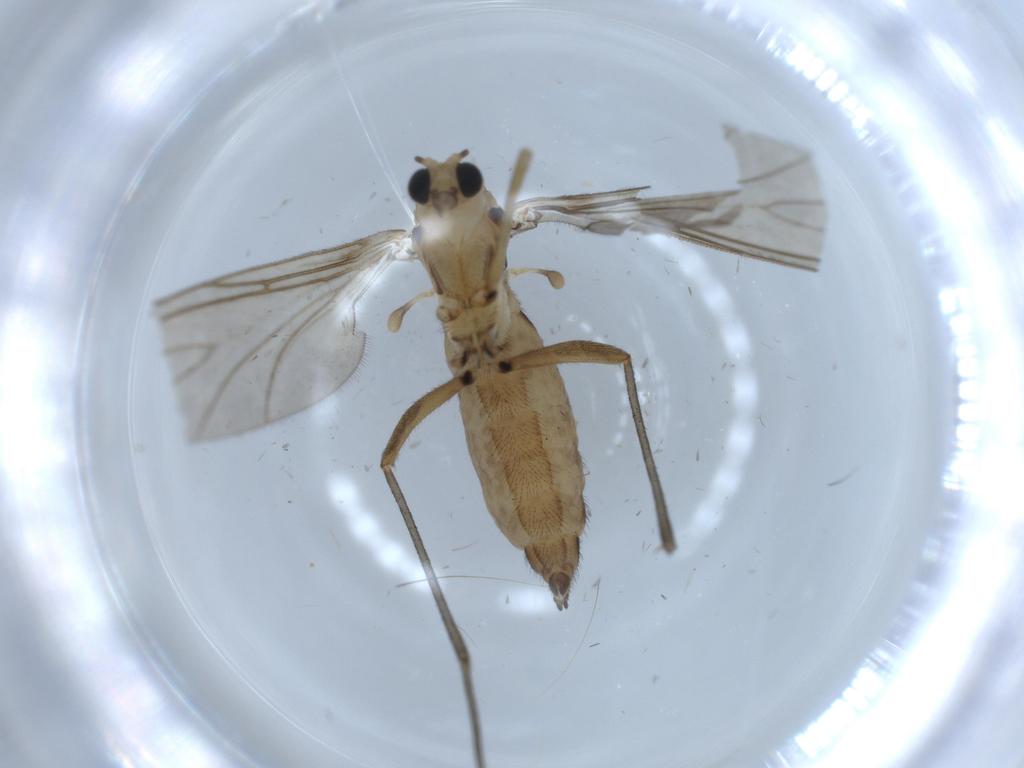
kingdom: Animalia
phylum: Arthropoda
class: Insecta
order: Diptera
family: Sciaridae
